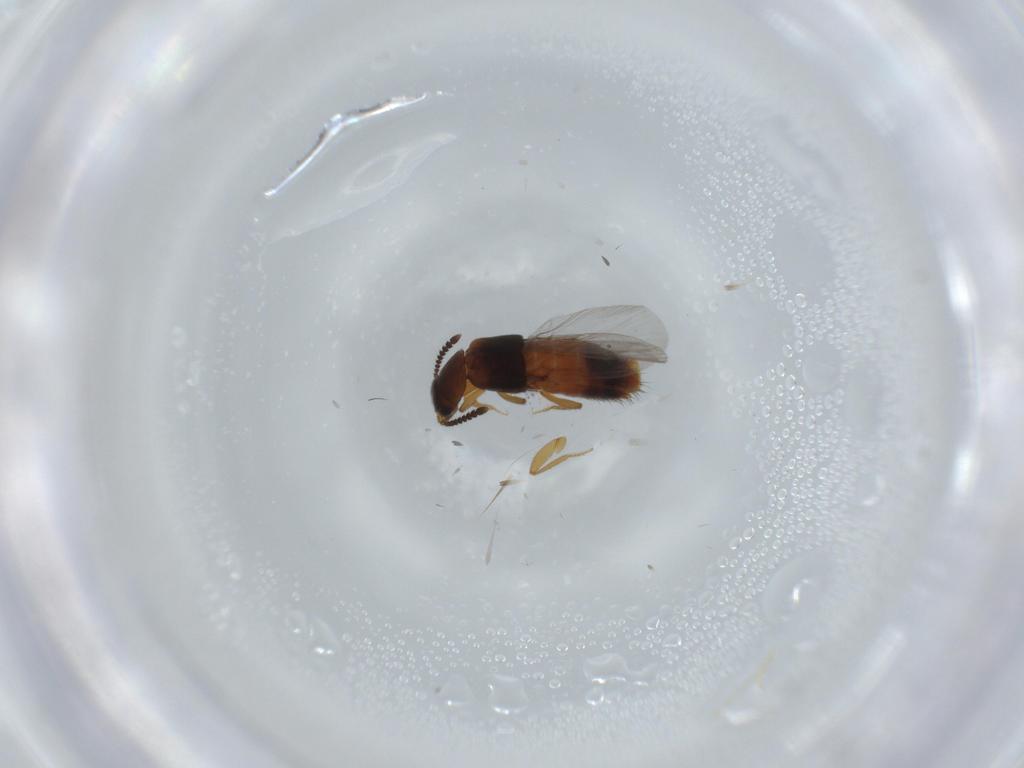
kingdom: Animalia
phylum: Arthropoda
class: Insecta
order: Coleoptera
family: Staphylinidae
